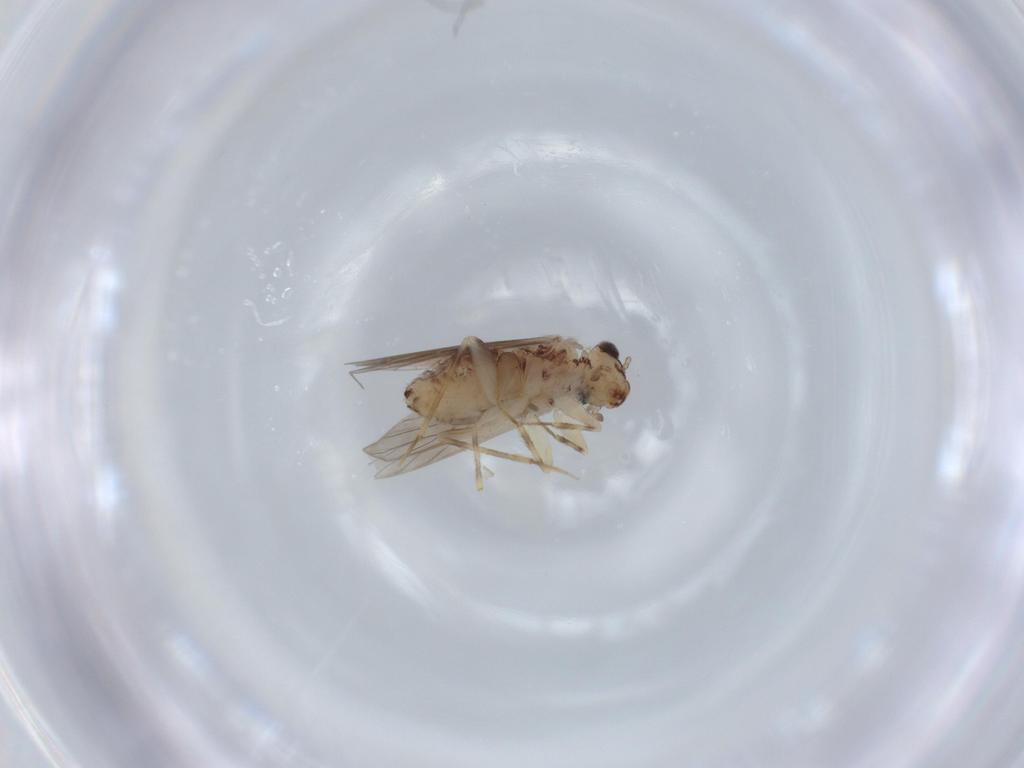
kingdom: Animalia
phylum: Arthropoda
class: Insecta
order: Psocodea
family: Lepidopsocidae
